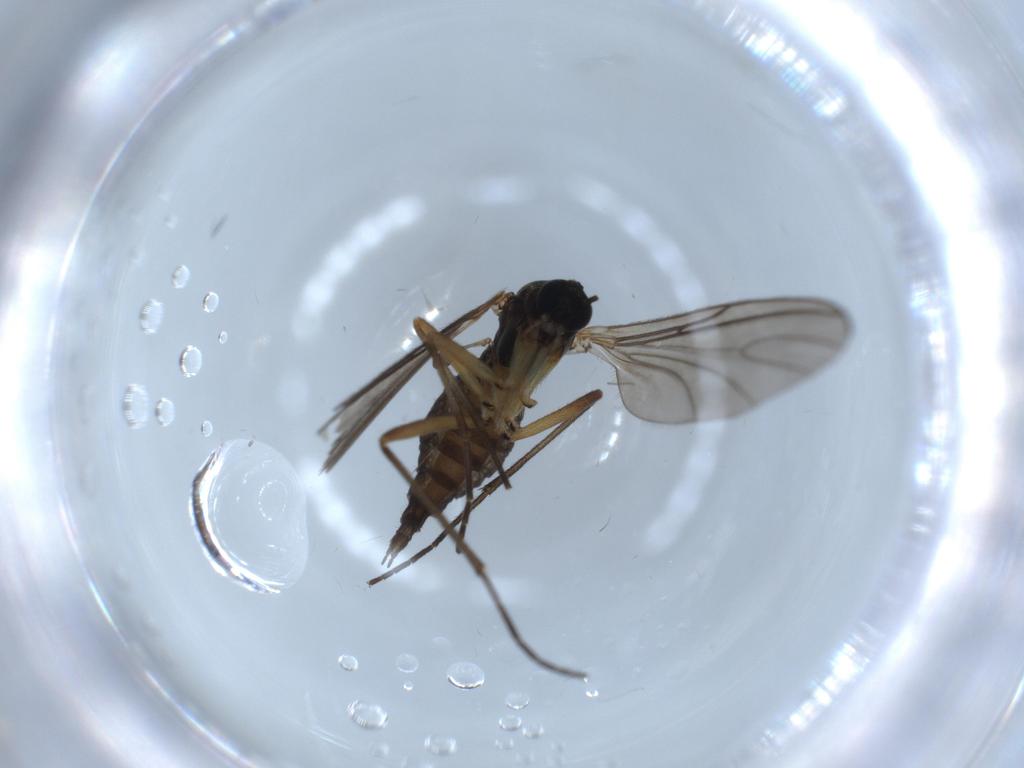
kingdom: Animalia
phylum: Arthropoda
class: Insecta
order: Diptera
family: Sciaridae
